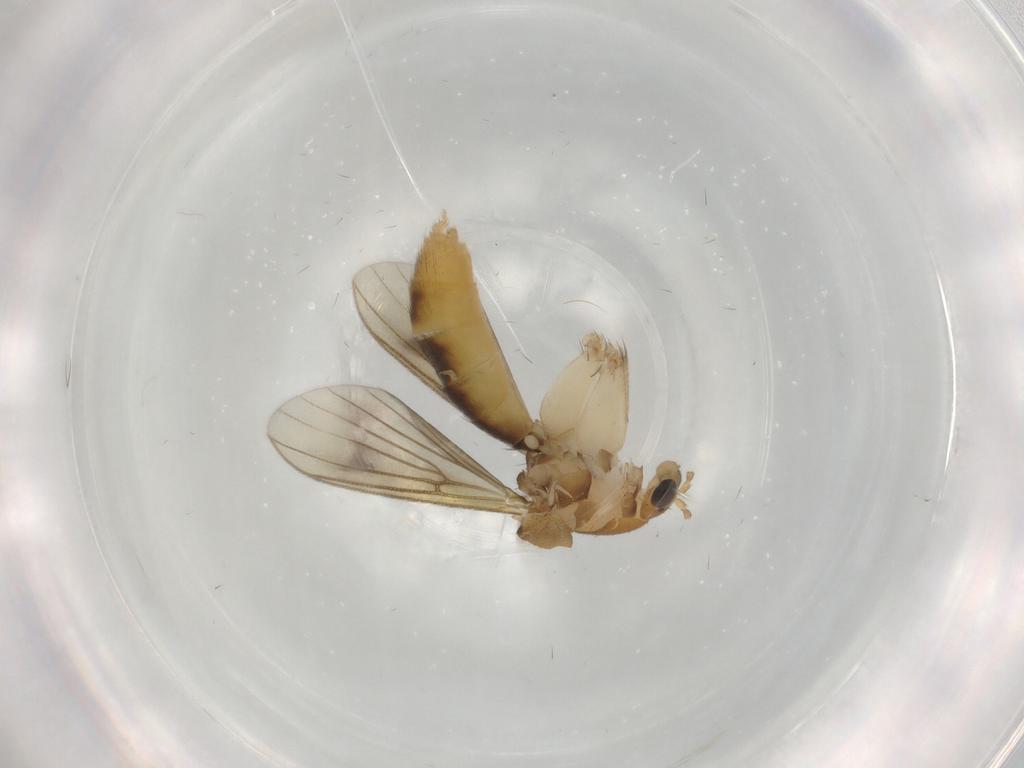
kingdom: Animalia
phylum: Arthropoda
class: Insecta
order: Diptera
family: Mycetophilidae
